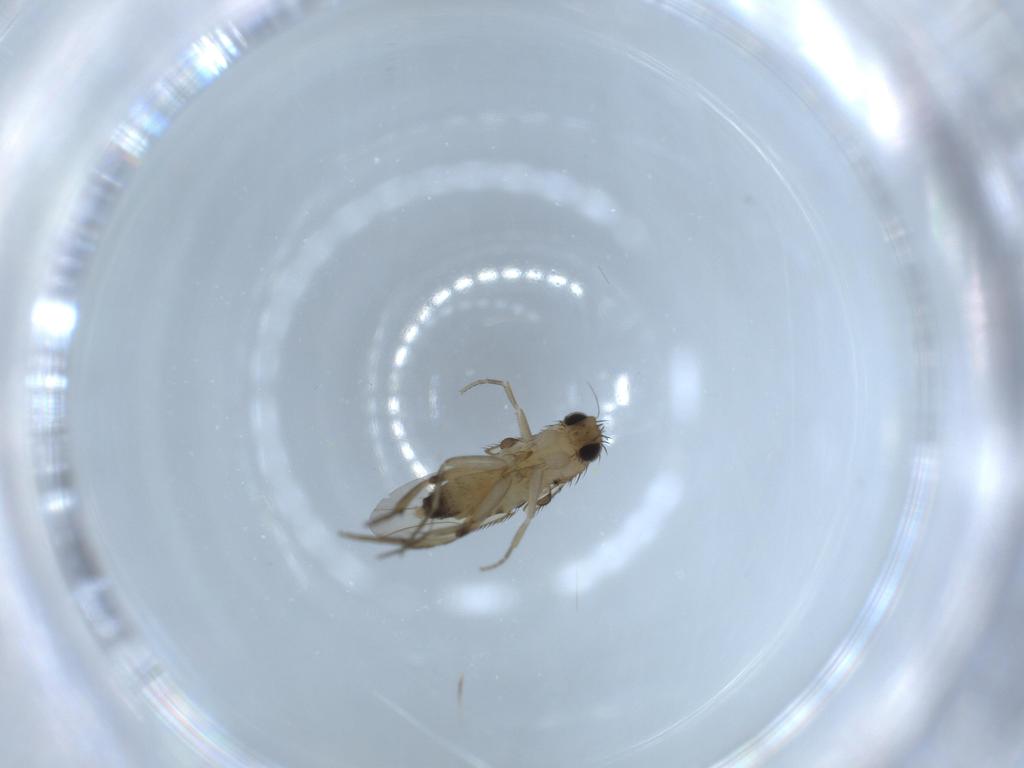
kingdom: Animalia
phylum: Arthropoda
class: Insecta
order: Diptera
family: Phoridae
